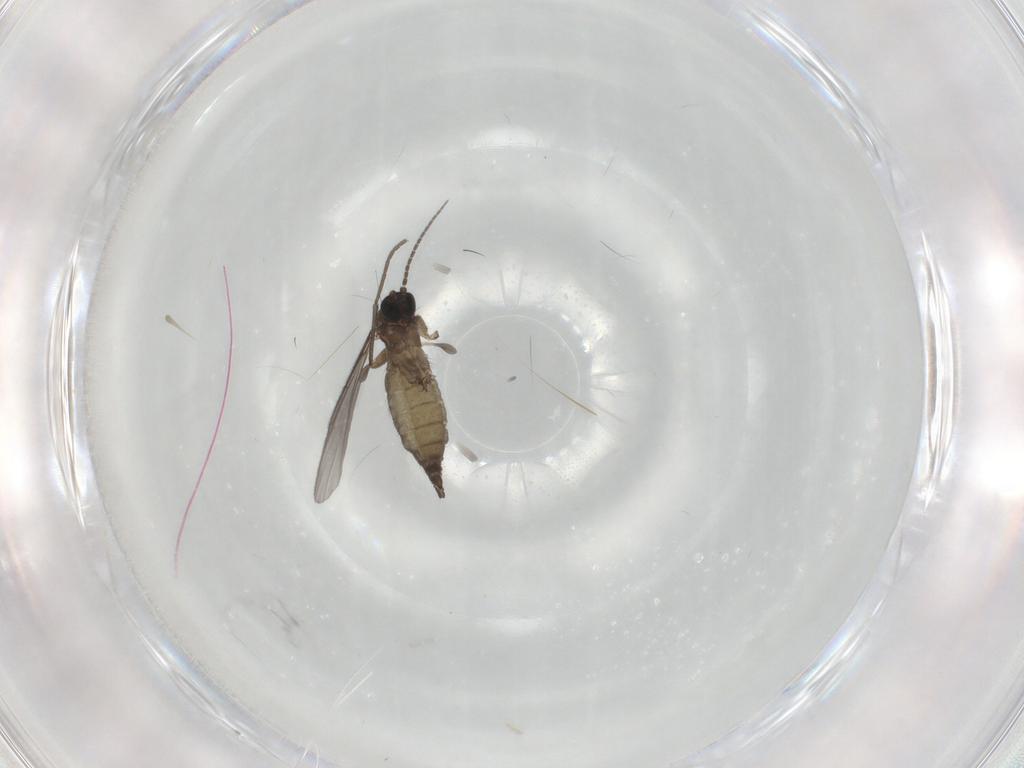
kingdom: Animalia
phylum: Arthropoda
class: Insecta
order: Diptera
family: Sciaridae
